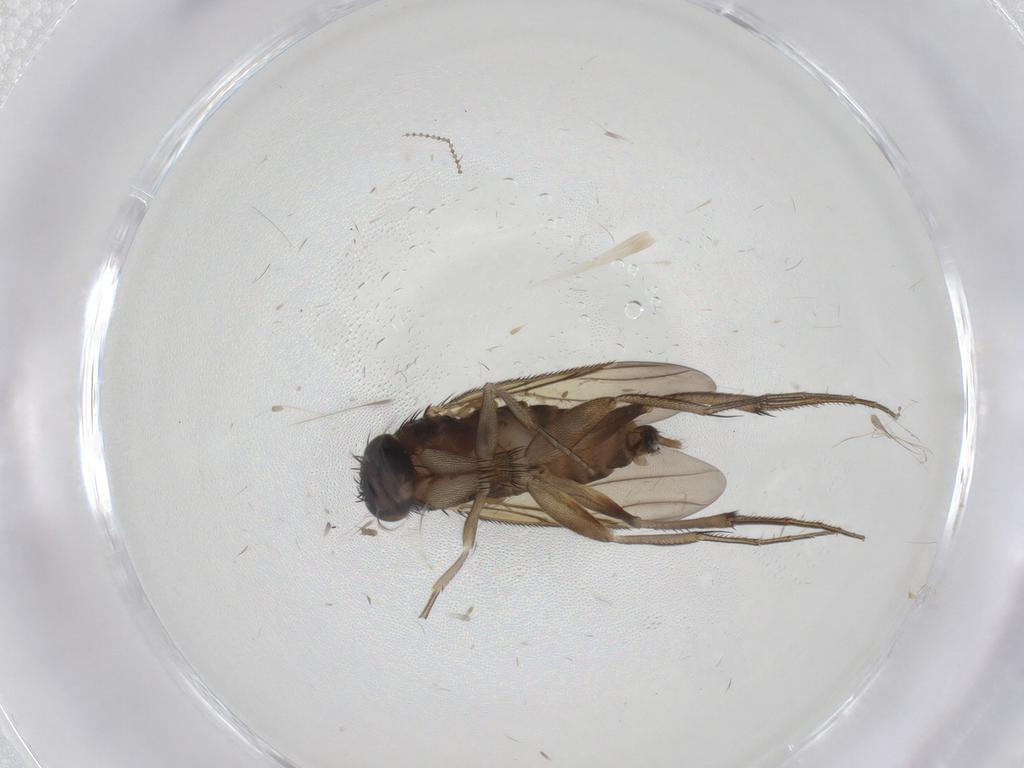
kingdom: Animalia
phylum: Arthropoda
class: Insecta
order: Diptera
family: Phoridae
